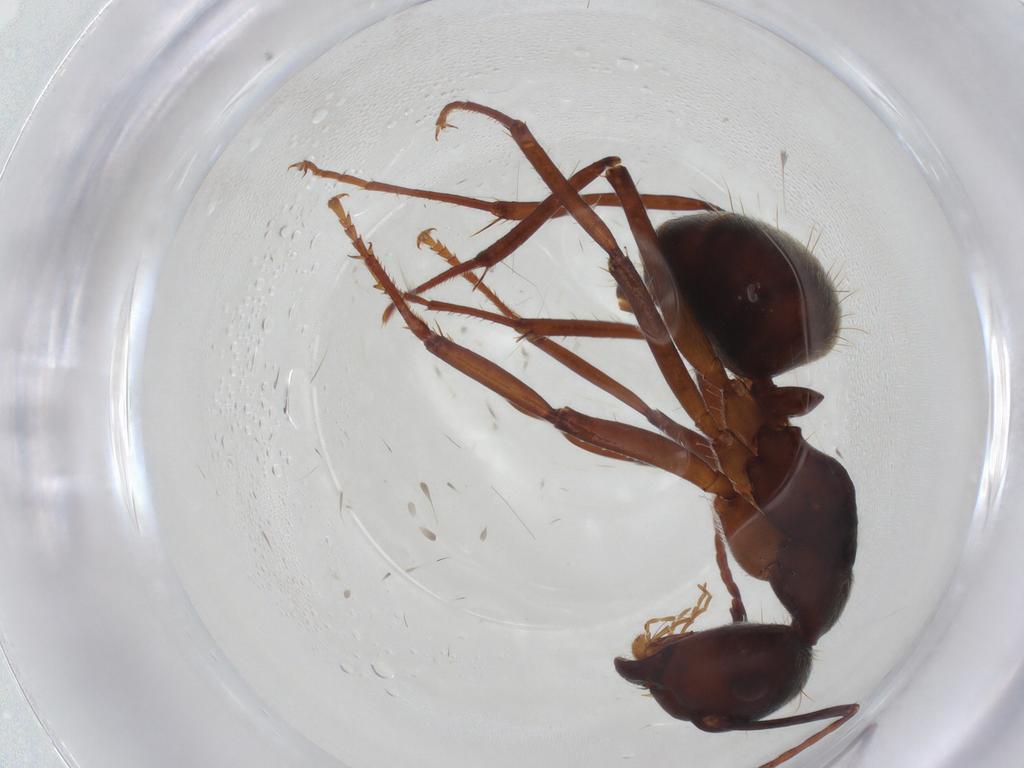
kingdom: Animalia
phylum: Arthropoda
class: Insecta
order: Hymenoptera
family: Formicidae
